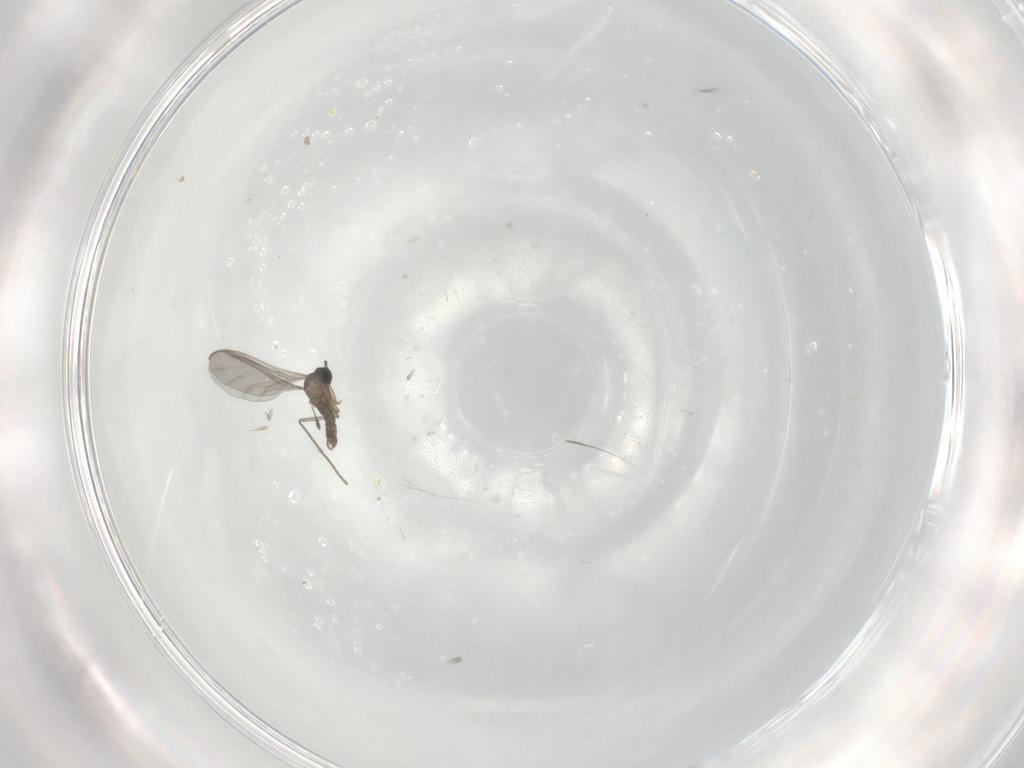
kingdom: Animalia
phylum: Arthropoda
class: Insecta
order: Diptera
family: Sciaridae
